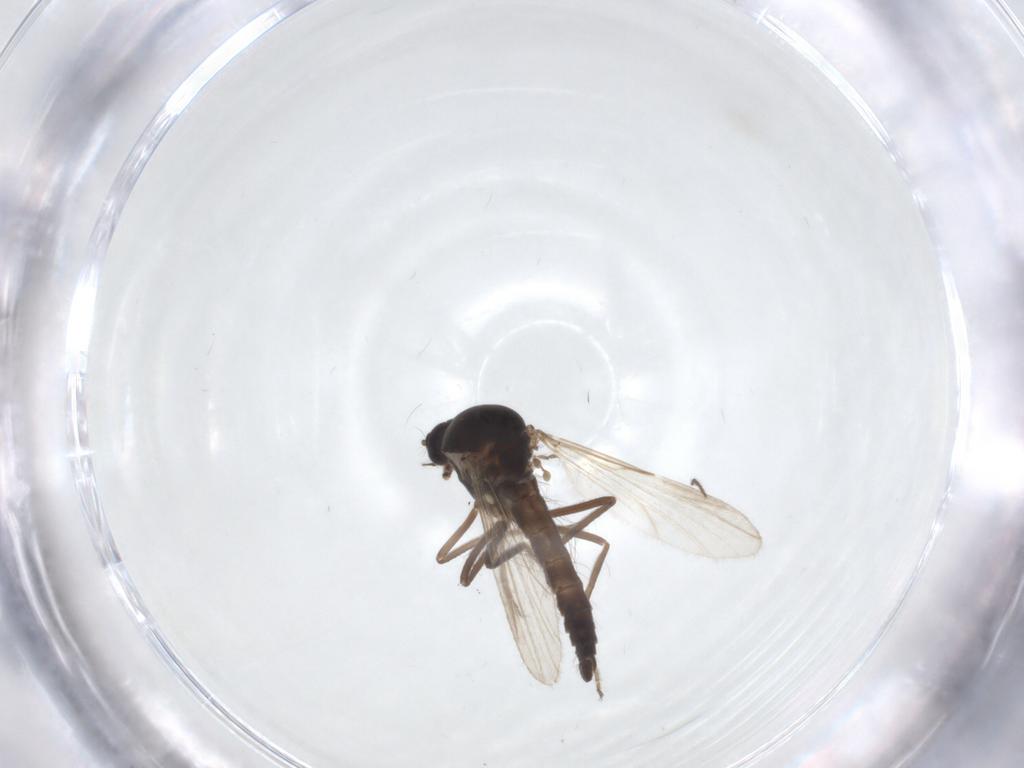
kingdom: Animalia
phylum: Arthropoda
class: Insecta
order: Diptera
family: Ceratopogonidae
